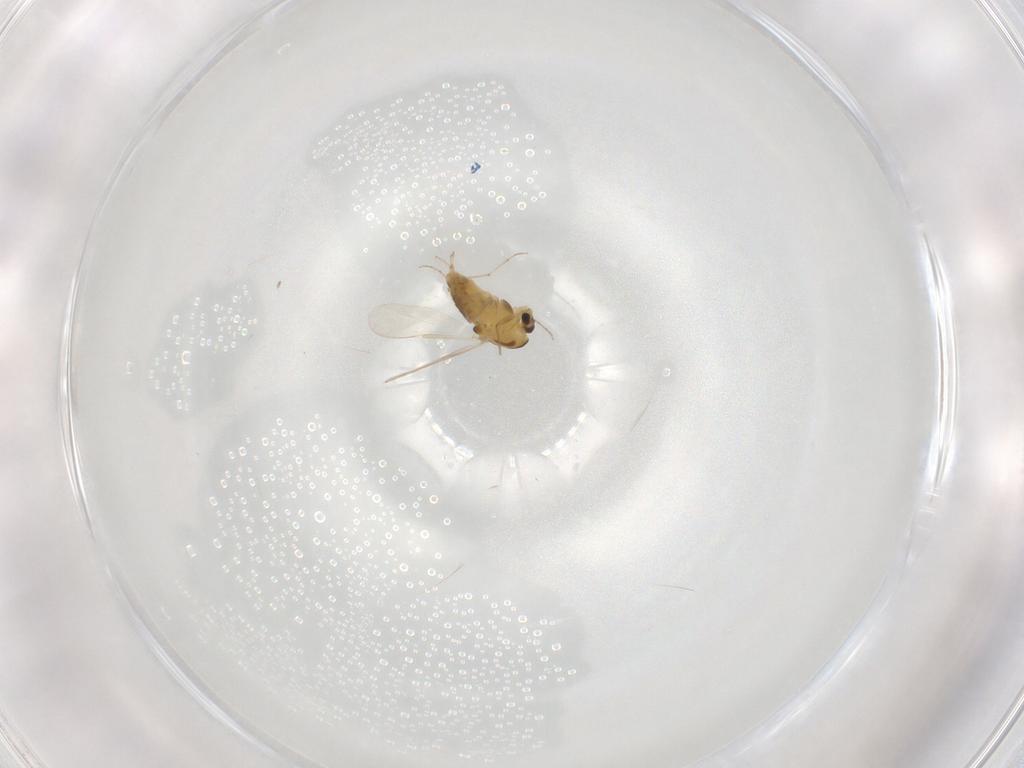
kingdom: Animalia
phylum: Arthropoda
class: Insecta
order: Diptera
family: Chironomidae
